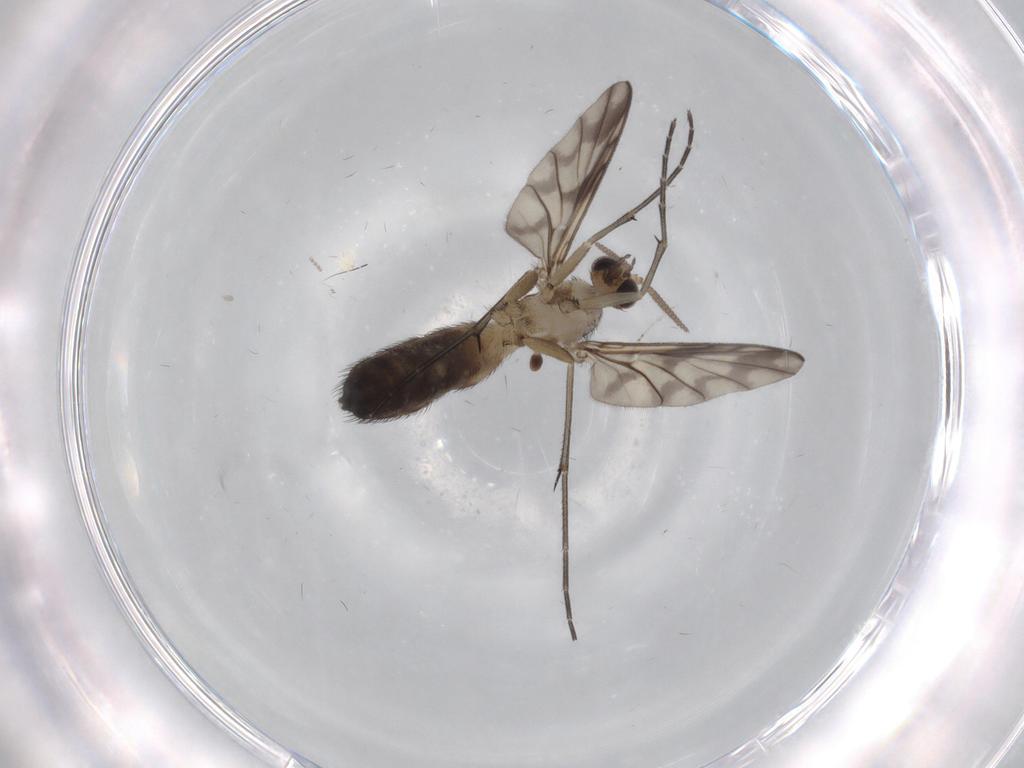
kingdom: Animalia
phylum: Arthropoda
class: Insecta
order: Diptera
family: Keroplatidae
